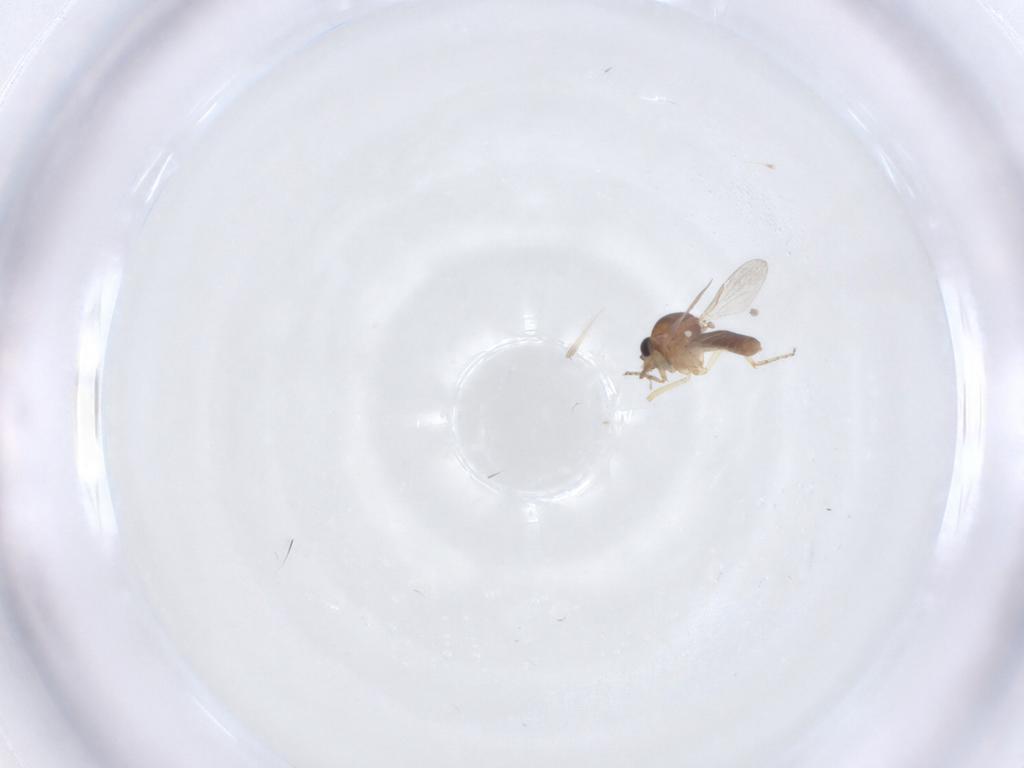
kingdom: Animalia
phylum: Arthropoda
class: Insecta
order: Diptera
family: Ceratopogonidae
